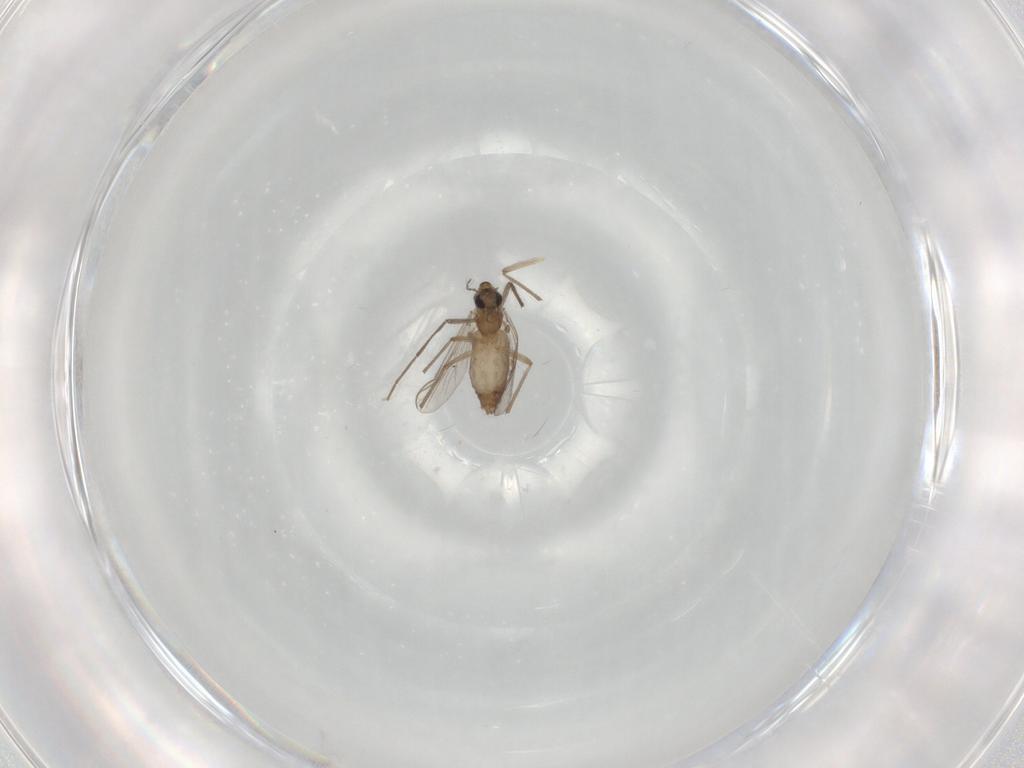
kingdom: Animalia
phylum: Arthropoda
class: Insecta
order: Diptera
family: Chironomidae
